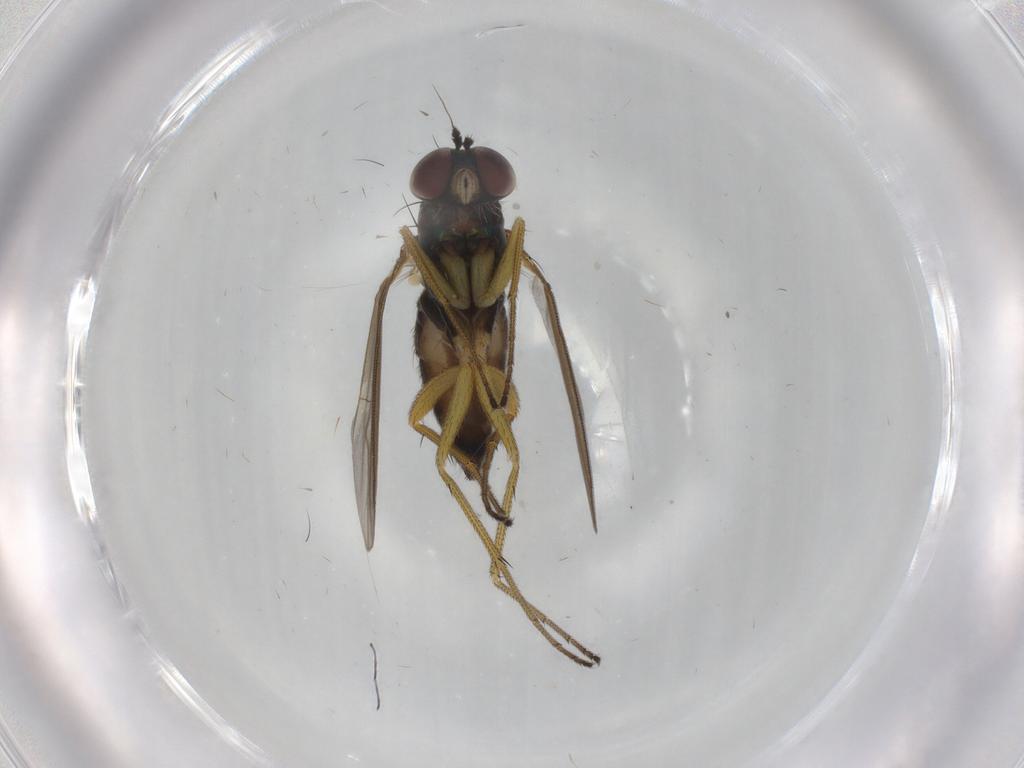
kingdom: Animalia
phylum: Arthropoda
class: Insecta
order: Diptera
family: Dolichopodidae
